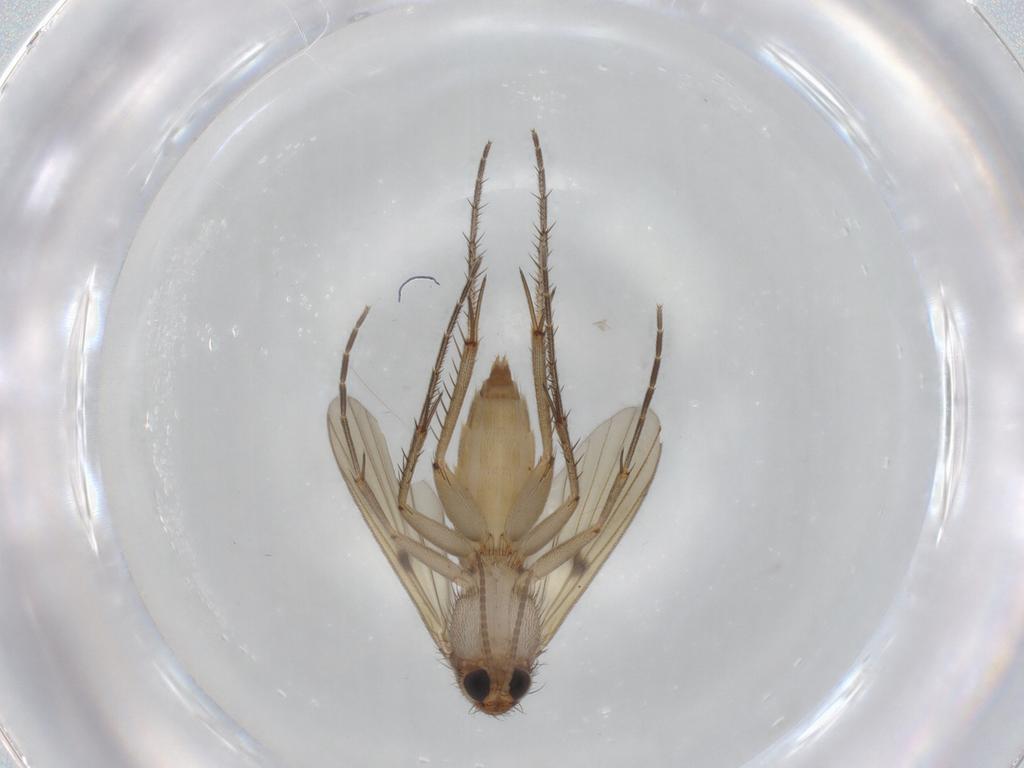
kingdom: Animalia
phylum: Arthropoda
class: Insecta
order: Diptera
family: Mycetophilidae
